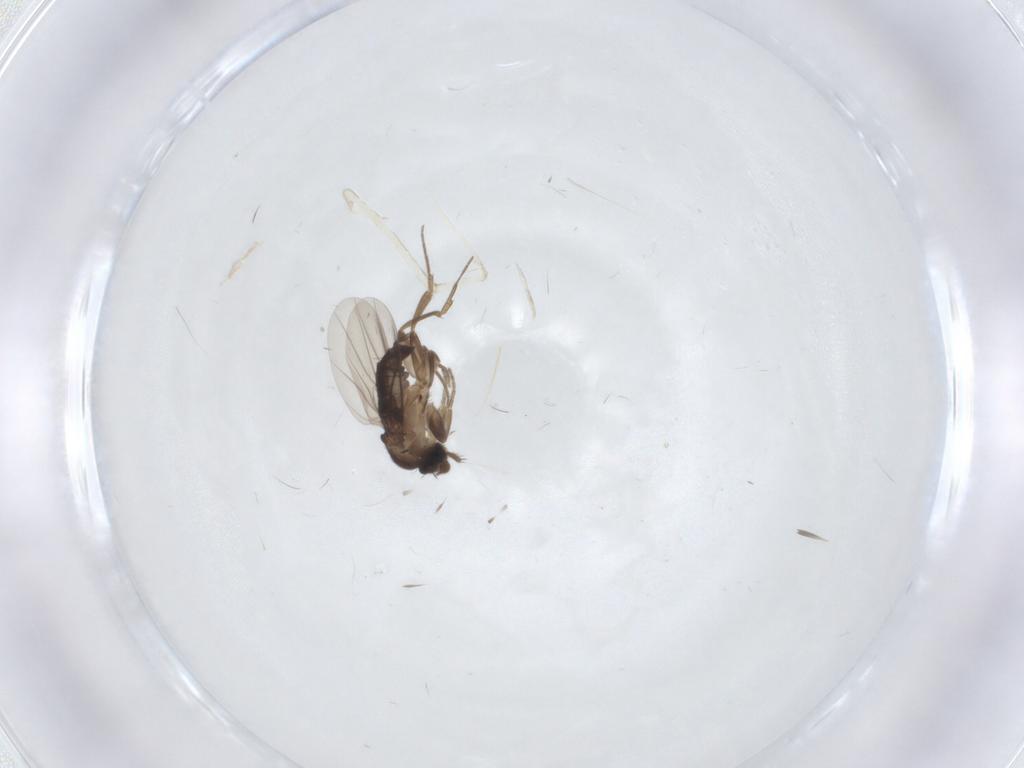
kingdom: Animalia
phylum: Arthropoda
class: Insecta
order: Diptera
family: Phoridae
